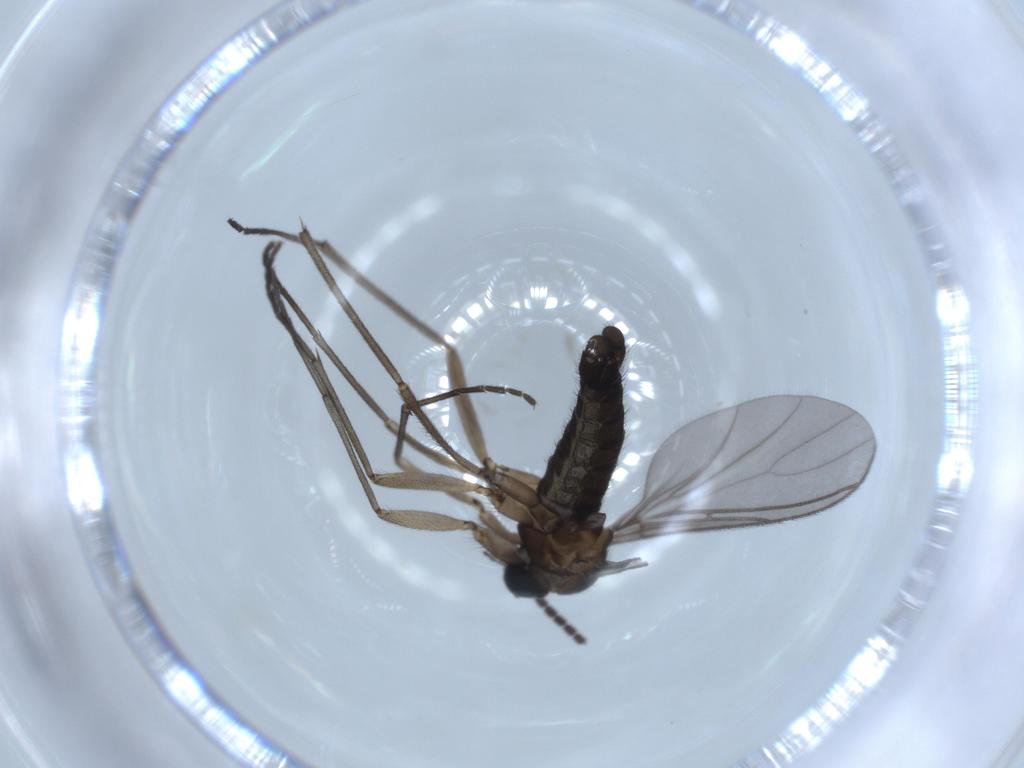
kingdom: Animalia
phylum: Arthropoda
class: Insecta
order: Diptera
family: Sciaridae
